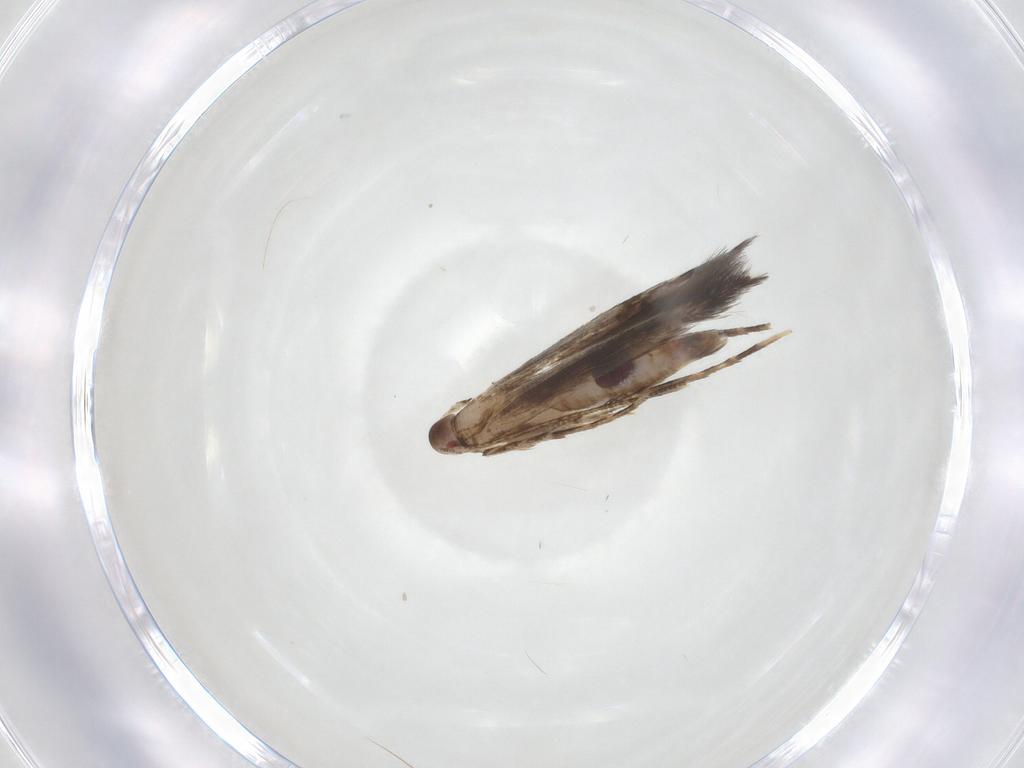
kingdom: Animalia
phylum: Arthropoda
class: Insecta
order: Lepidoptera
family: Cosmopterigidae
